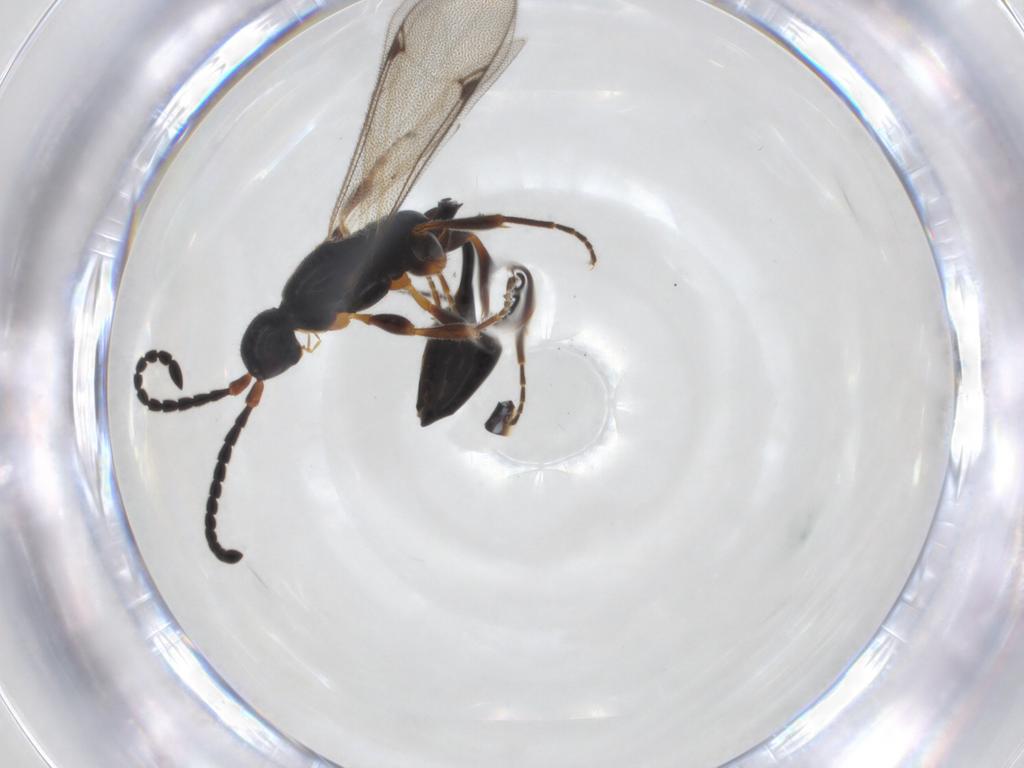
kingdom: Animalia
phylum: Arthropoda
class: Insecta
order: Hymenoptera
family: Proctotrupidae
